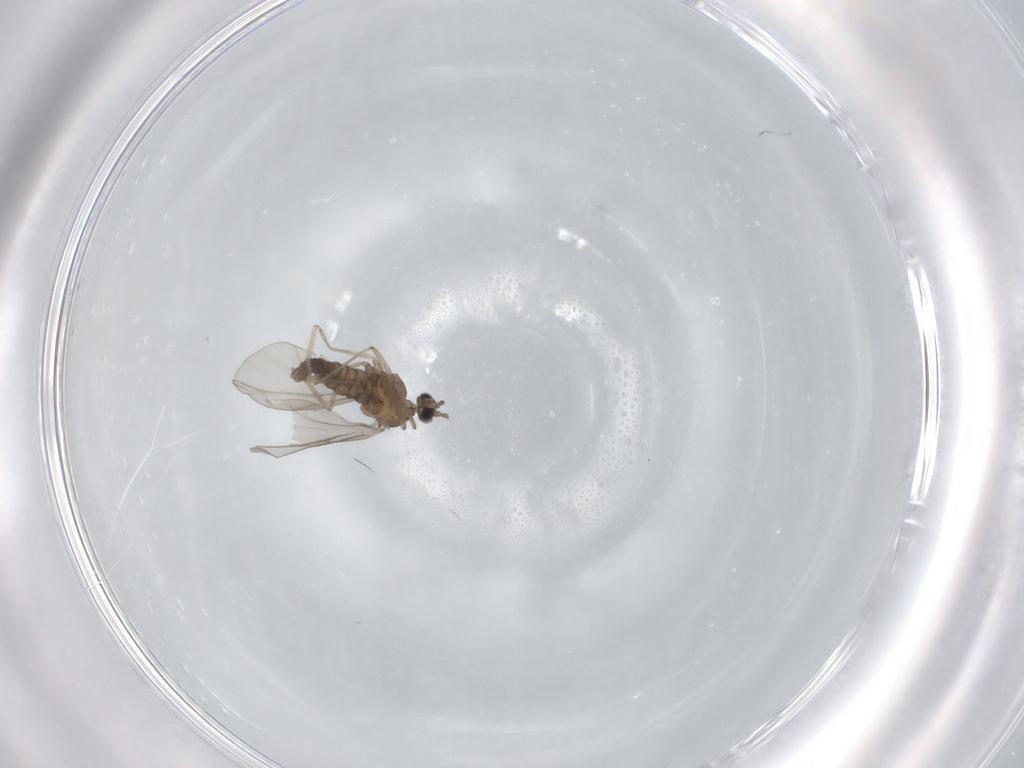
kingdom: Animalia
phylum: Arthropoda
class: Insecta
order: Diptera
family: Cecidomyiidae
